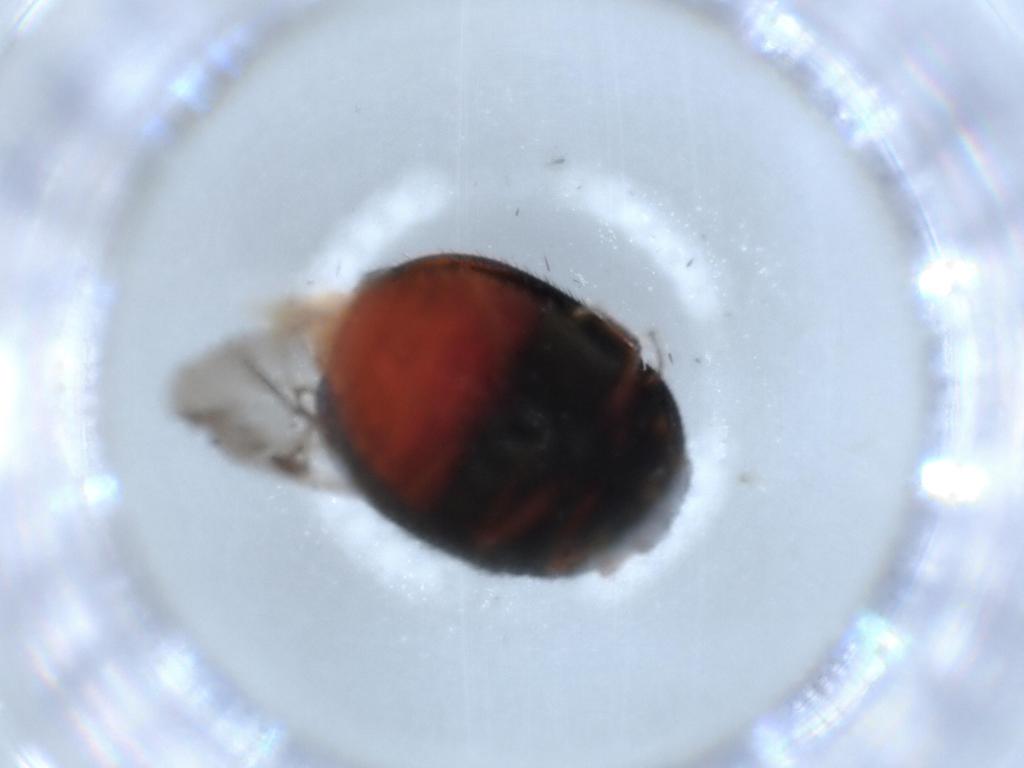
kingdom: Animalia
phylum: Arthropoda
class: Insecta
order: Coleoptera
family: Dermestidae
